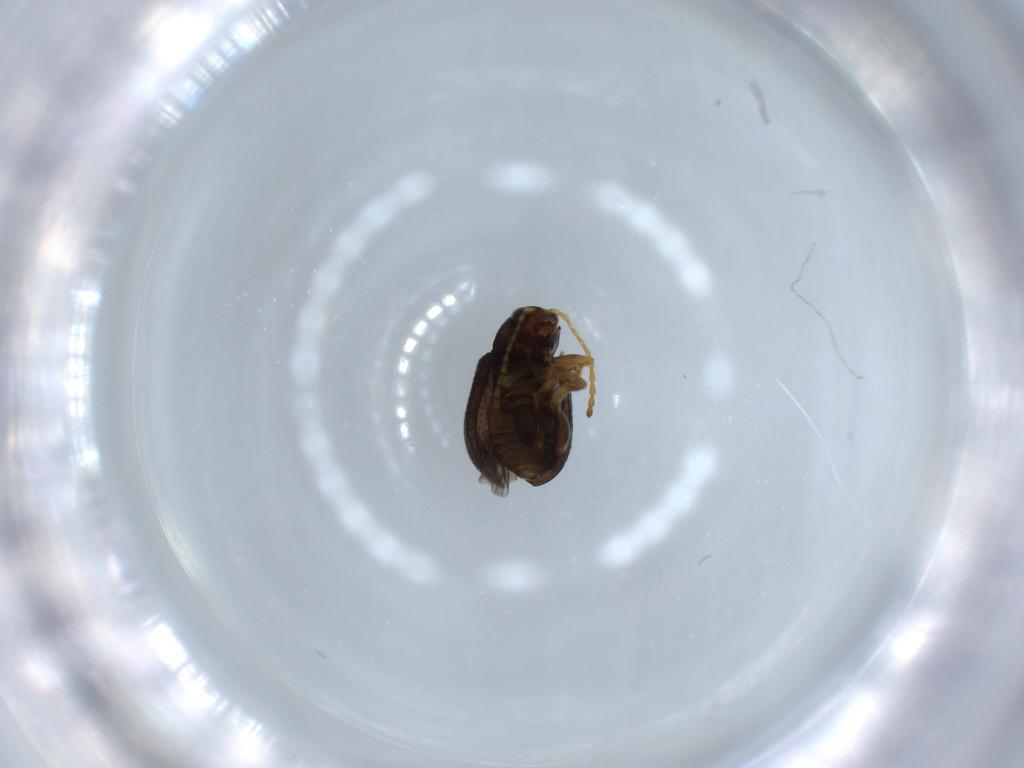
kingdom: Animalia
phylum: Arthropoda
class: Insecta
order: Coleoptera
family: Chrysomelidae
